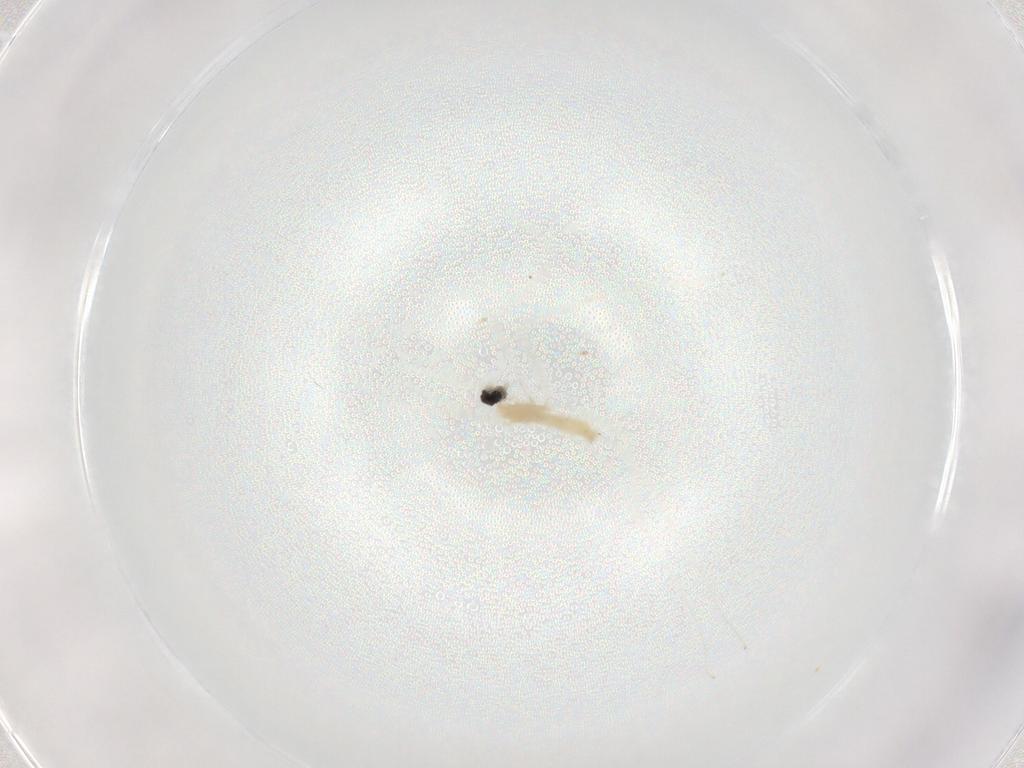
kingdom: Animalia
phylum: Arthropoda
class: Insecta
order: Diptera
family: Cecidomyiidae
